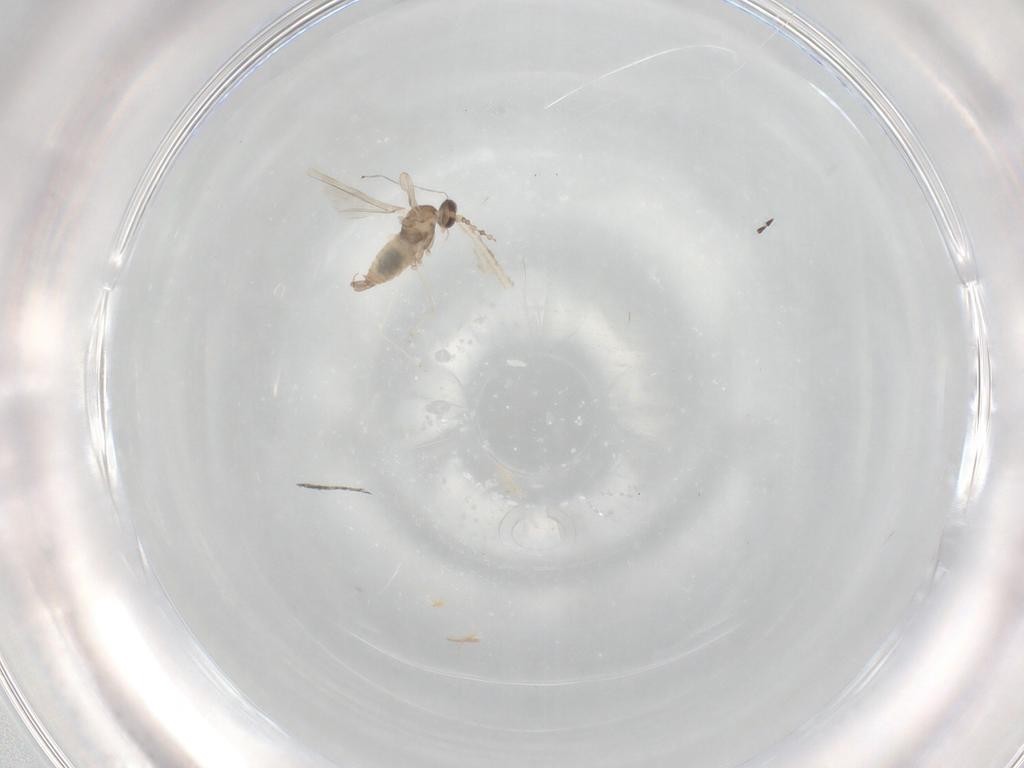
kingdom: Animalia
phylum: Arthropoda
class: Insecta
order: Diptera
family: Cecidomyiidae
